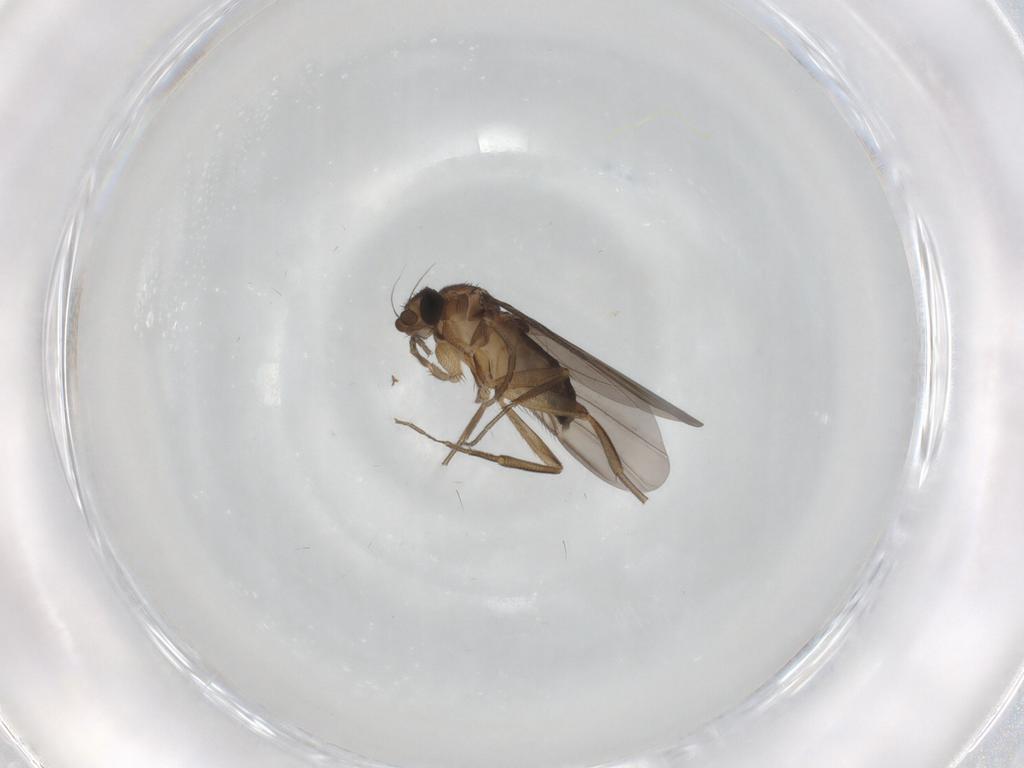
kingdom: Animalia
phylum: Arthropoda
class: Insecta
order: Diptera
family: Phoridae
